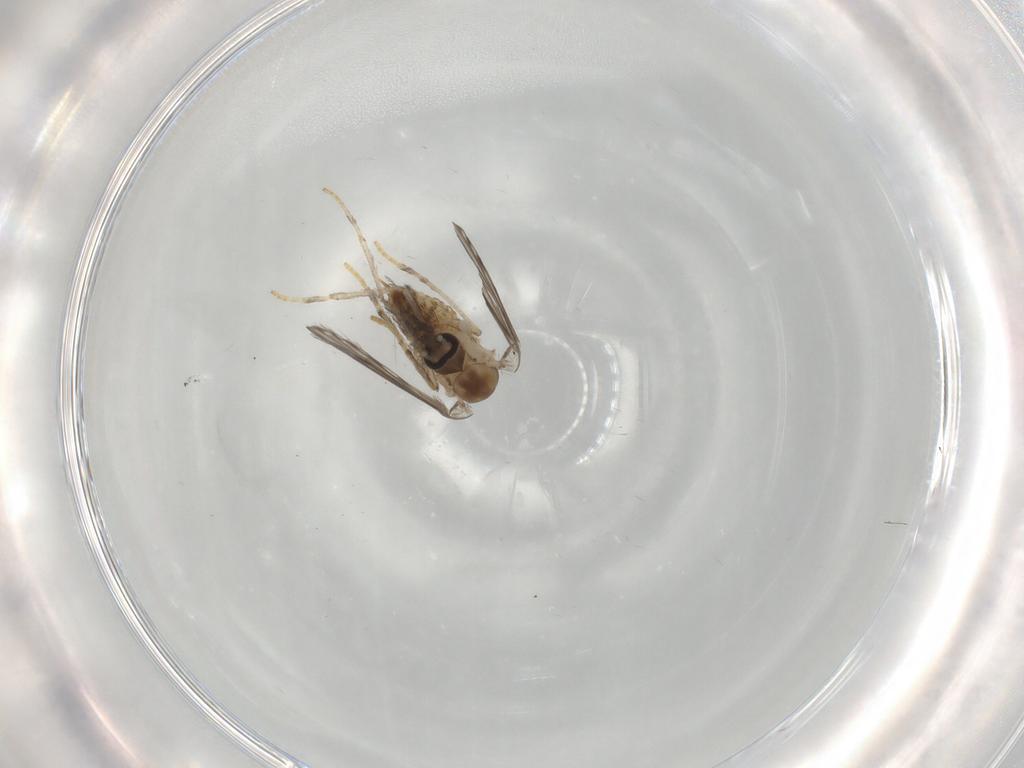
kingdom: Animalia
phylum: Arthropoda
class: Insecta
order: Diptera
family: Psychodidae
